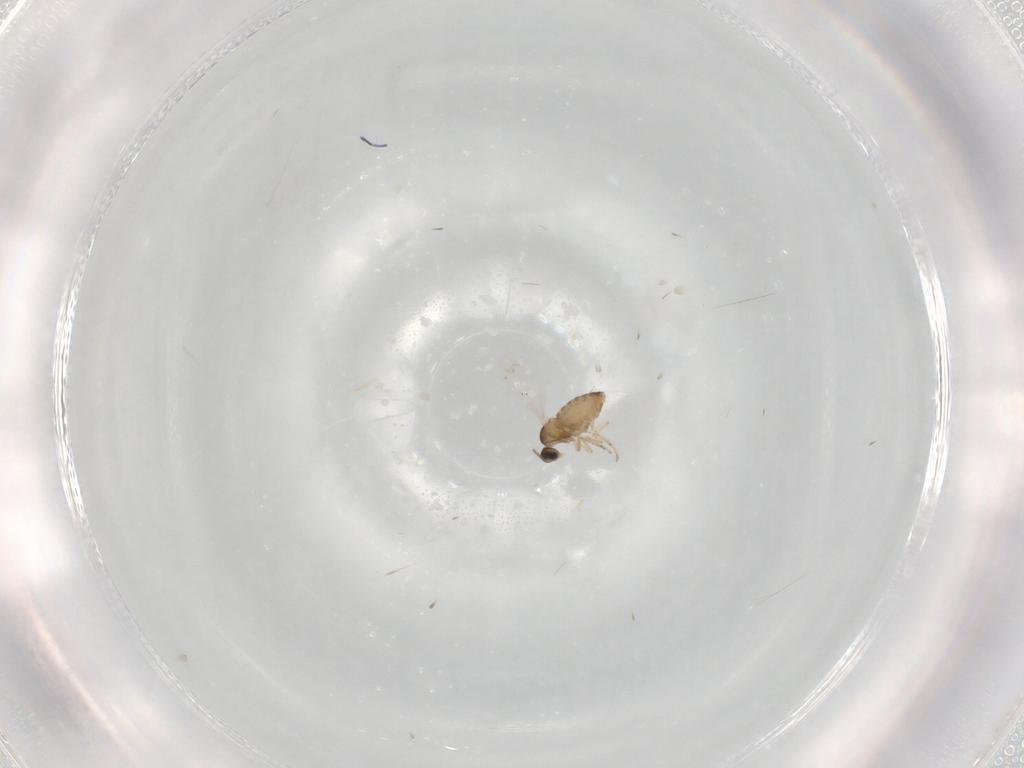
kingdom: Animalia
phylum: Arthropoda
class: Insecta
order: Diptera
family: Cecidomyiidae
